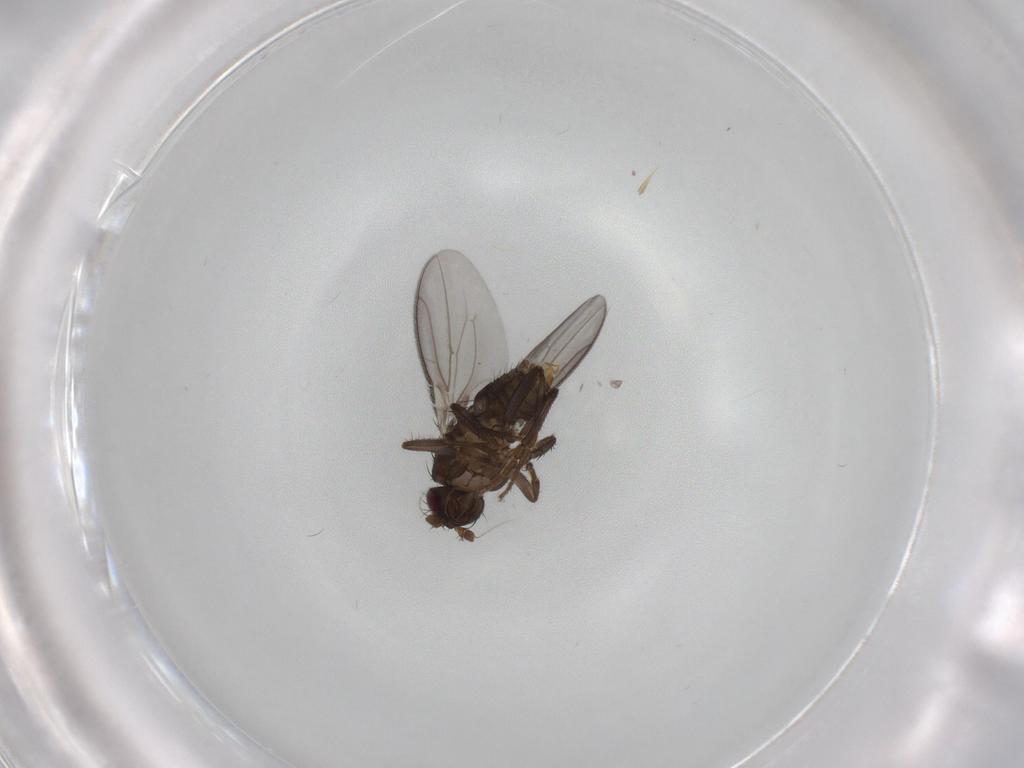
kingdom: Animalia
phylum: Arthropoda
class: Insecta
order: Diptera
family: Sphaeroceridae
